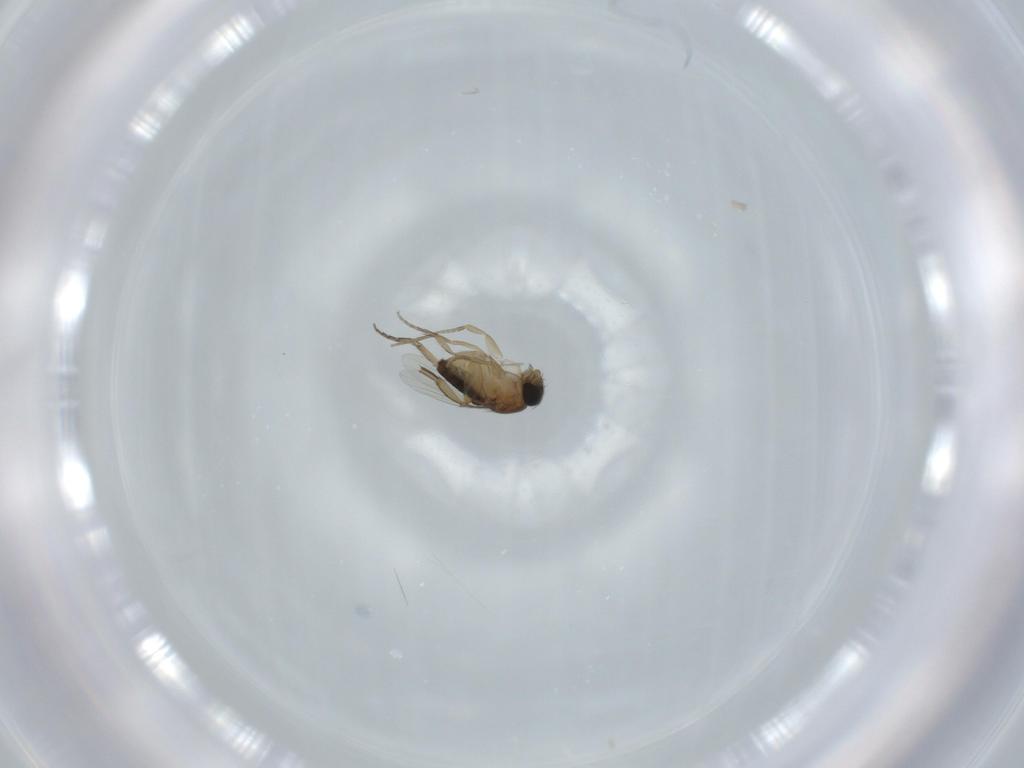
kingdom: Animalia
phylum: Arthropoda
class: Insecta
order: Diptera
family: Phoridae
